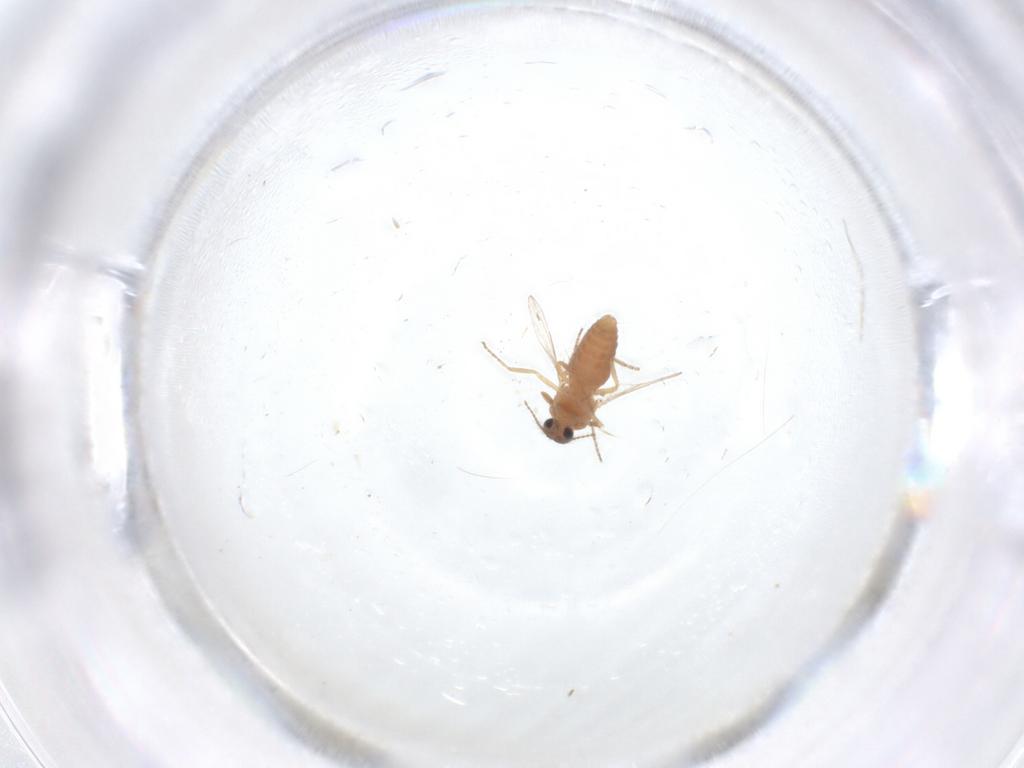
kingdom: Animalia
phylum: Arthropoda
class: Insecta
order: Diptera
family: Ceratopogonidae
